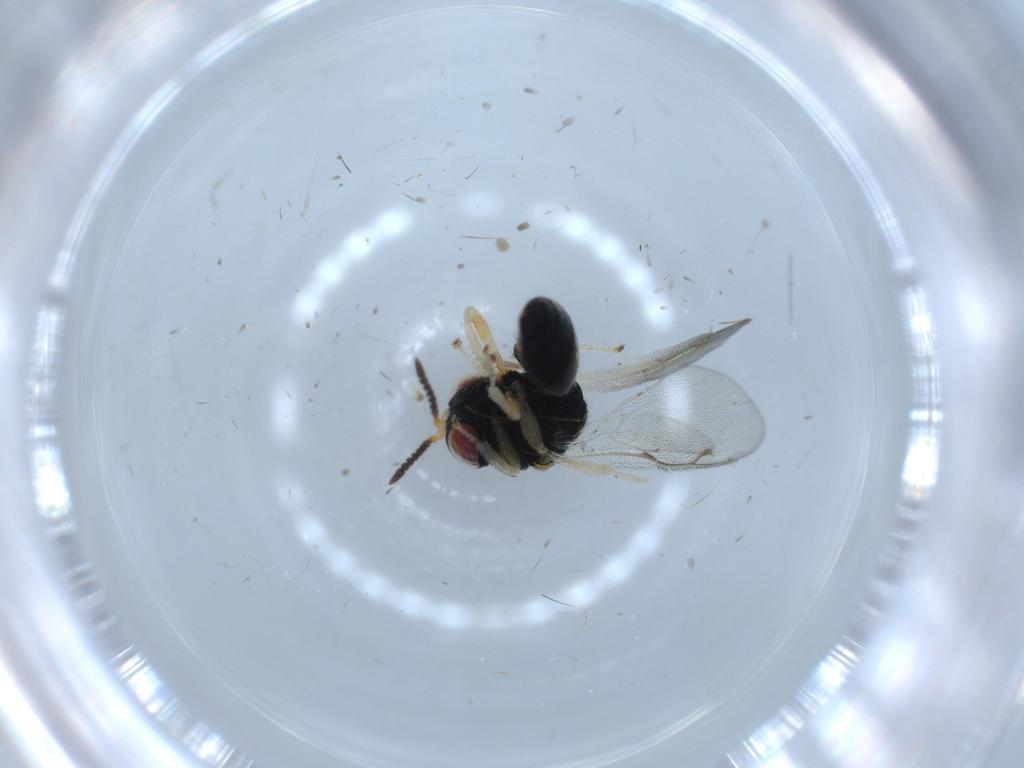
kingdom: Animalia
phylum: Arthropoda
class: Insecta
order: Hymenoptera
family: Eurytomidae
